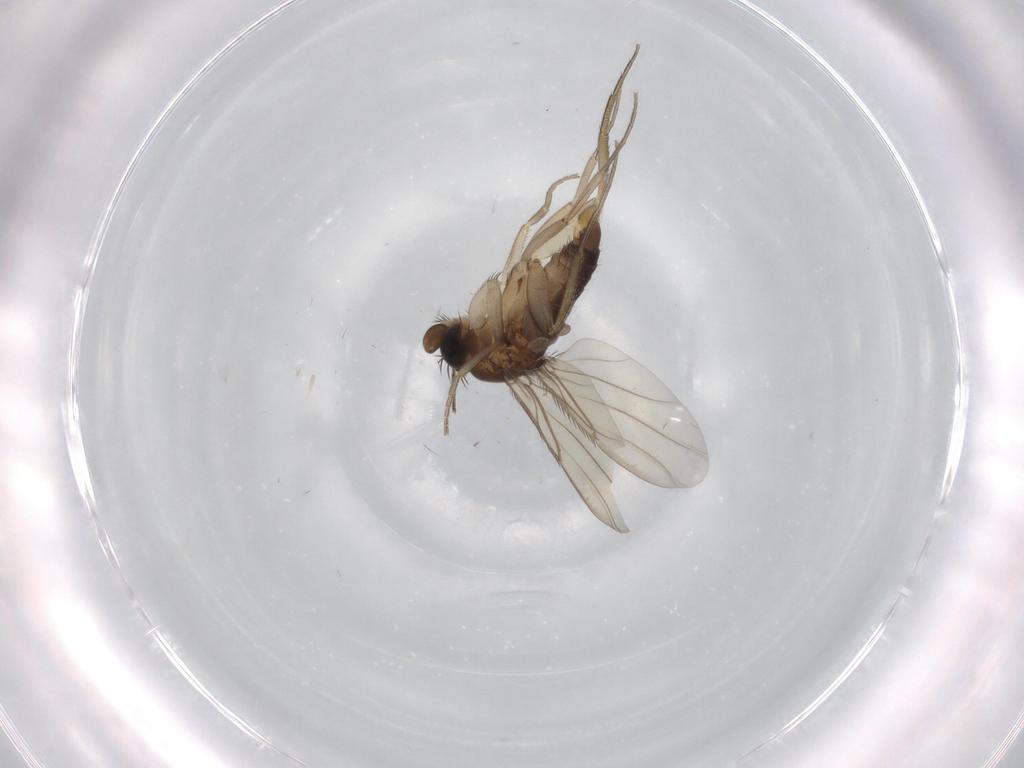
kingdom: Animalia
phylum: Arthropoda
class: Insecta
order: Diptera
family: Phoridae
